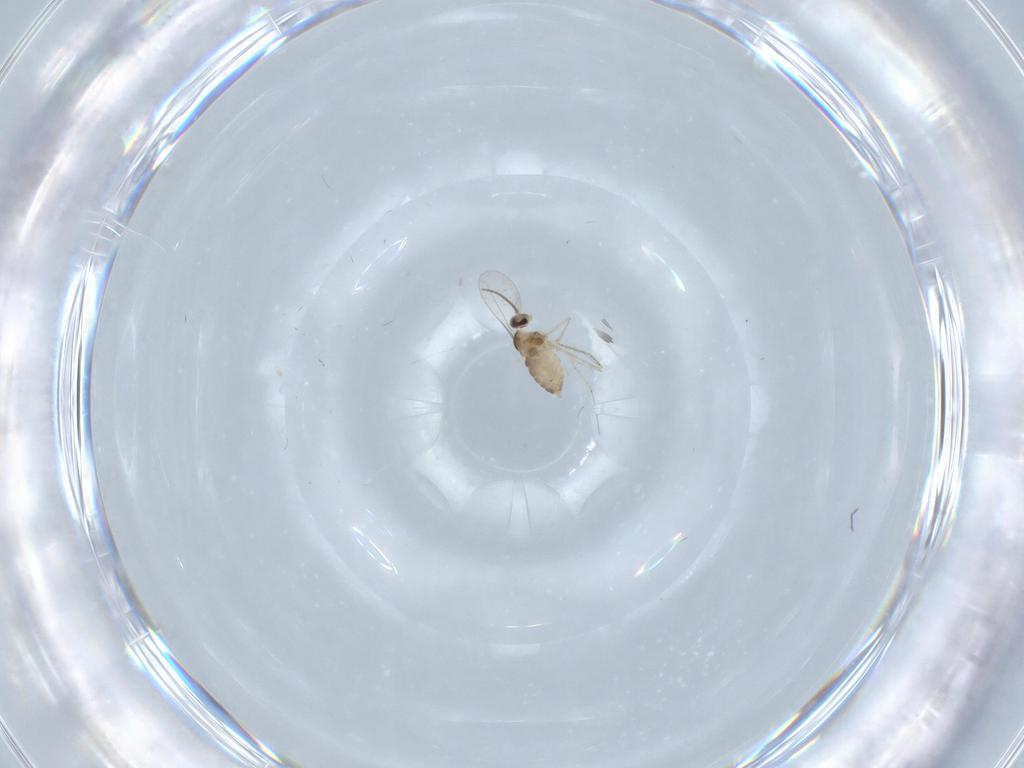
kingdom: Animalia
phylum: Arthropoda
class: Insecta
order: Diptera
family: Cecidomyiidae
